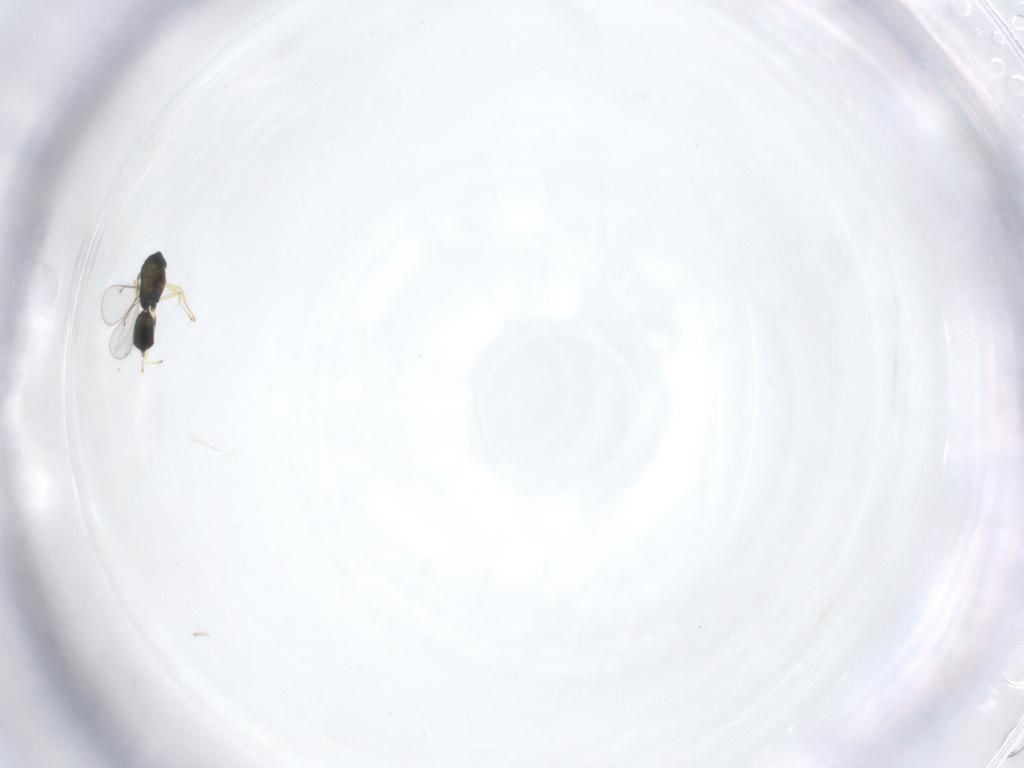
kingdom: Animalia
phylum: Arthropoda
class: Insecta
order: Hymenoptera
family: Eulophidae
